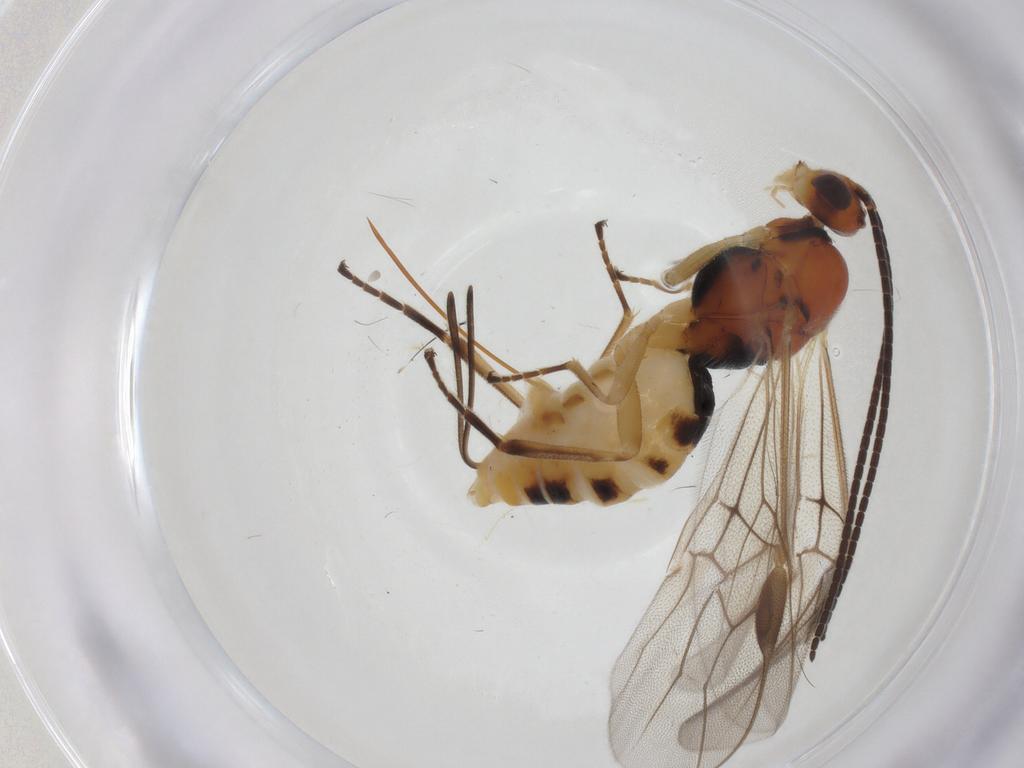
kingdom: Animalia
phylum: Arthropoda
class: Insecta
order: Hymenoptera
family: Braconidae
